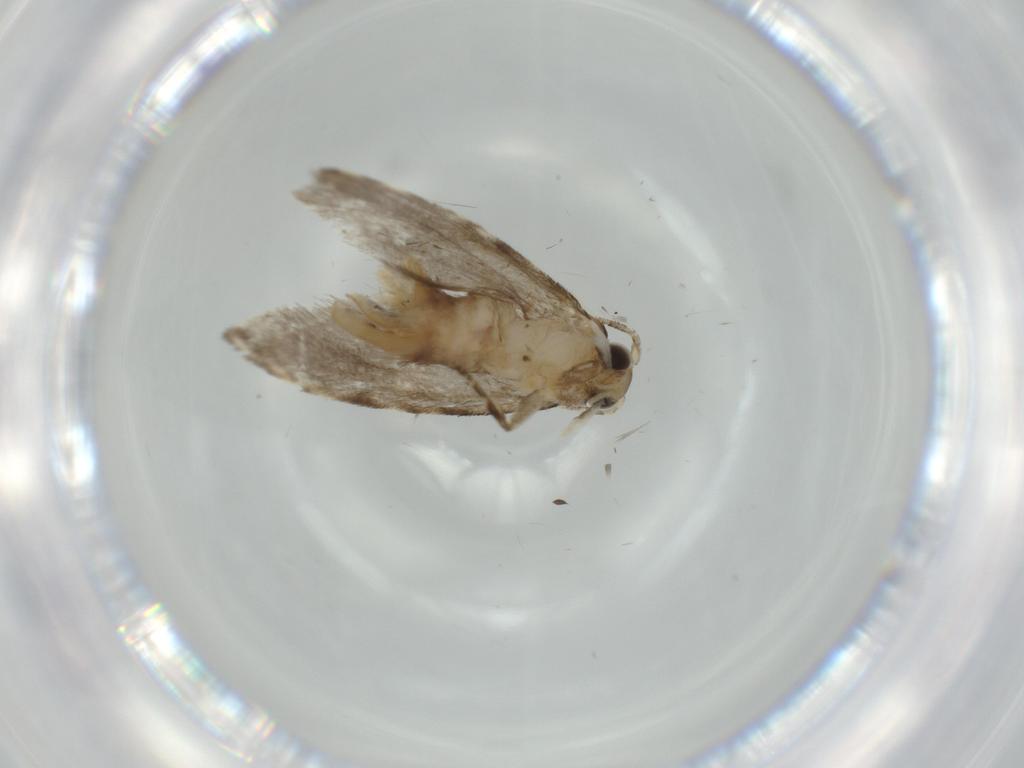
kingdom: Animalia
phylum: Arthropoda
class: Insecta
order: Lepidoptera
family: Tineidae
